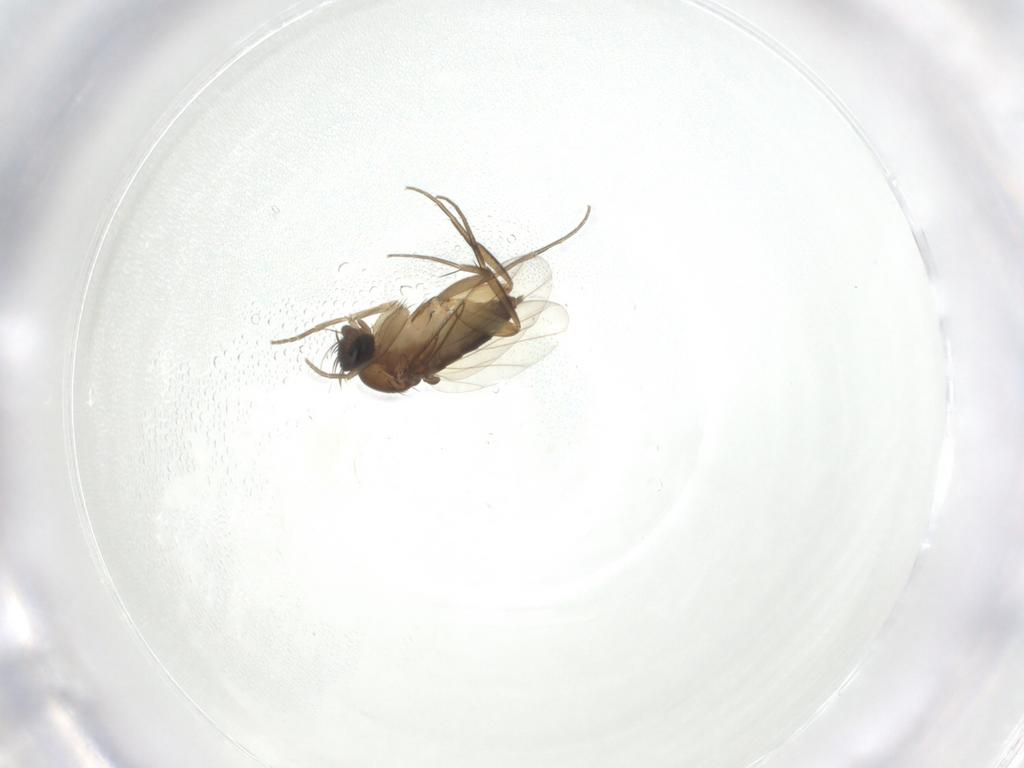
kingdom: Animalia
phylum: Arthropoda
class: Insecta
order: Diptera
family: Phoridae
